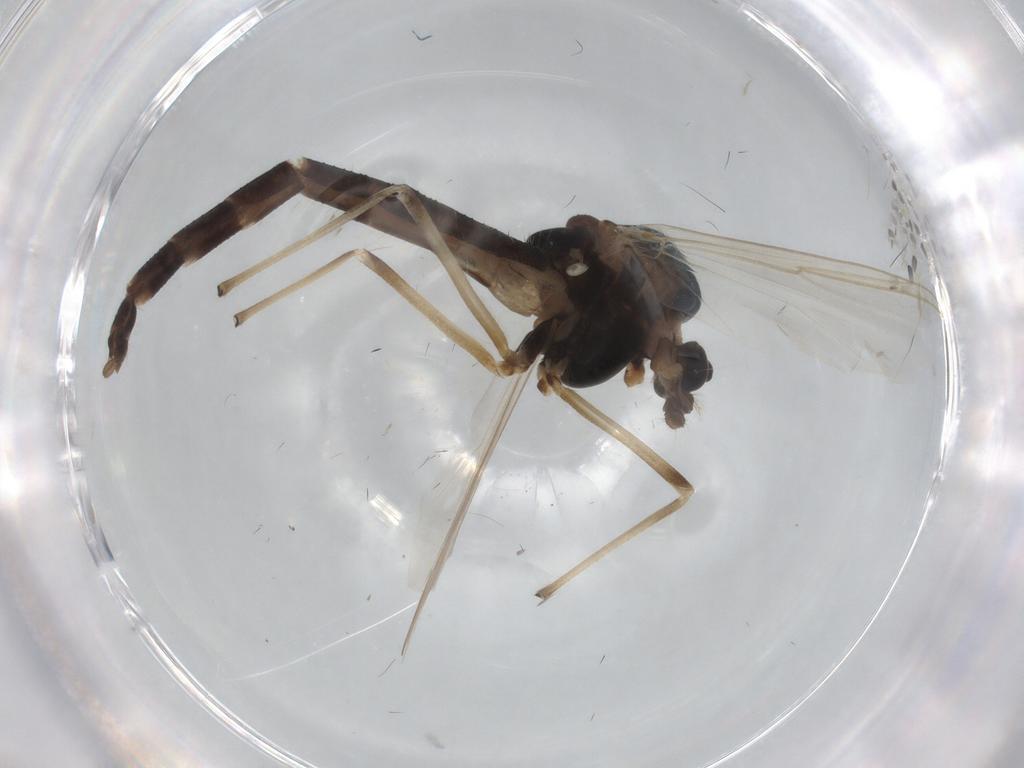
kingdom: Animalia
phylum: Arthropoda
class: Insecta
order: Diptera
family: Chironomidae
